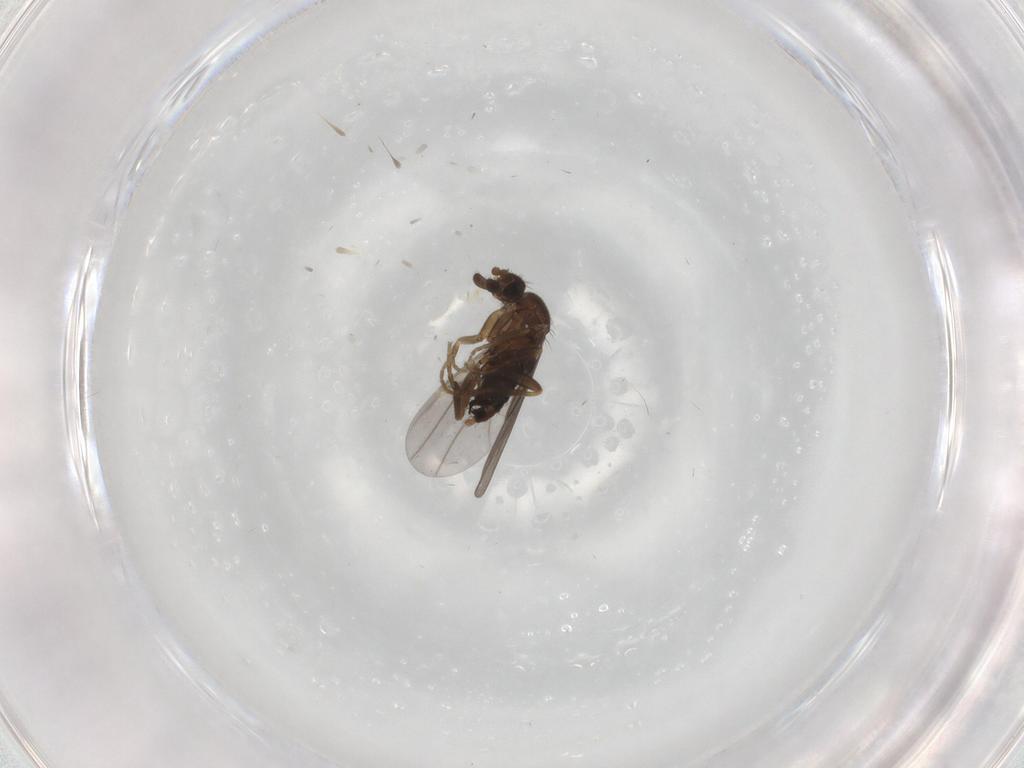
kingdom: Animalia
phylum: Arthropoda
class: Insecta
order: Diptera
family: Phoridae
